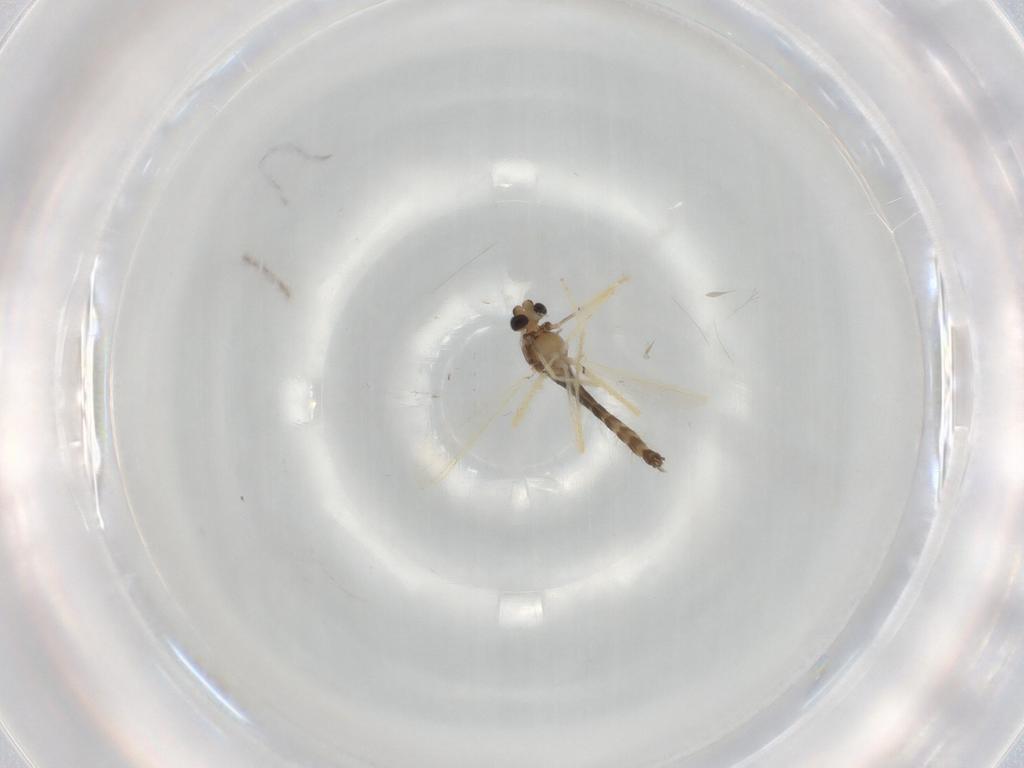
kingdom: Animalia
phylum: Arthropoda
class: Insecta
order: Diptera
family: Chironomidae
